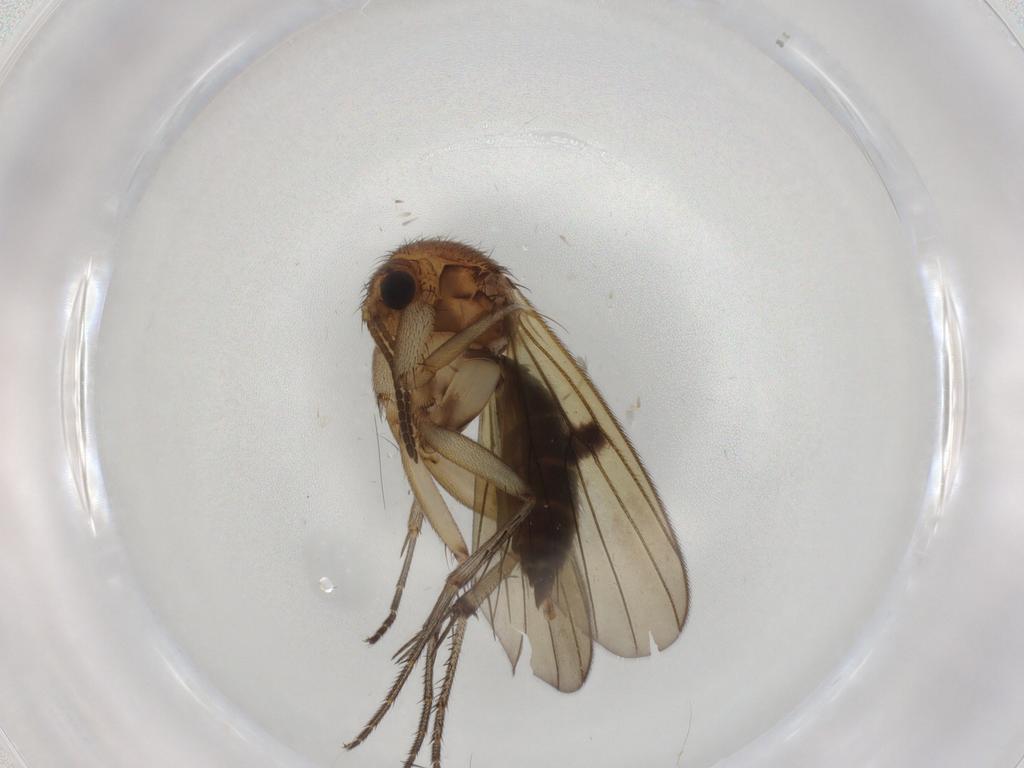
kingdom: Animalia
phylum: Arthropoda
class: Insecta
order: Diptera
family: Mycetophilidae
